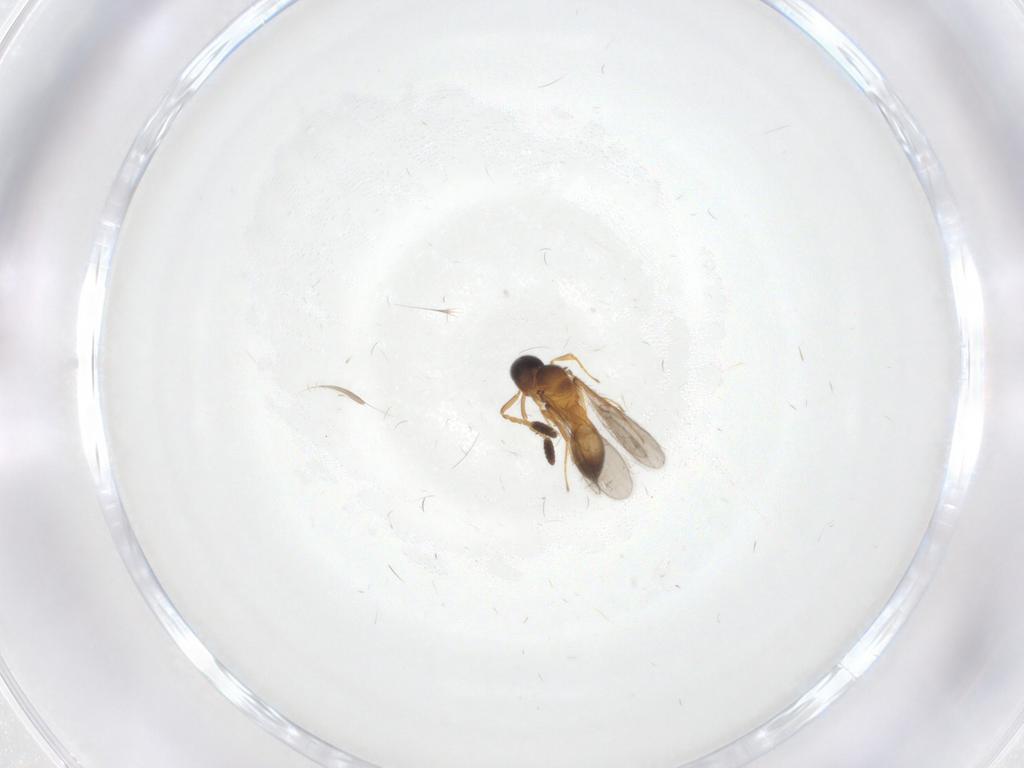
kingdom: Animalia
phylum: Arthropoda
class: Insecta
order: Hymenoptera
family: Scelionidae
